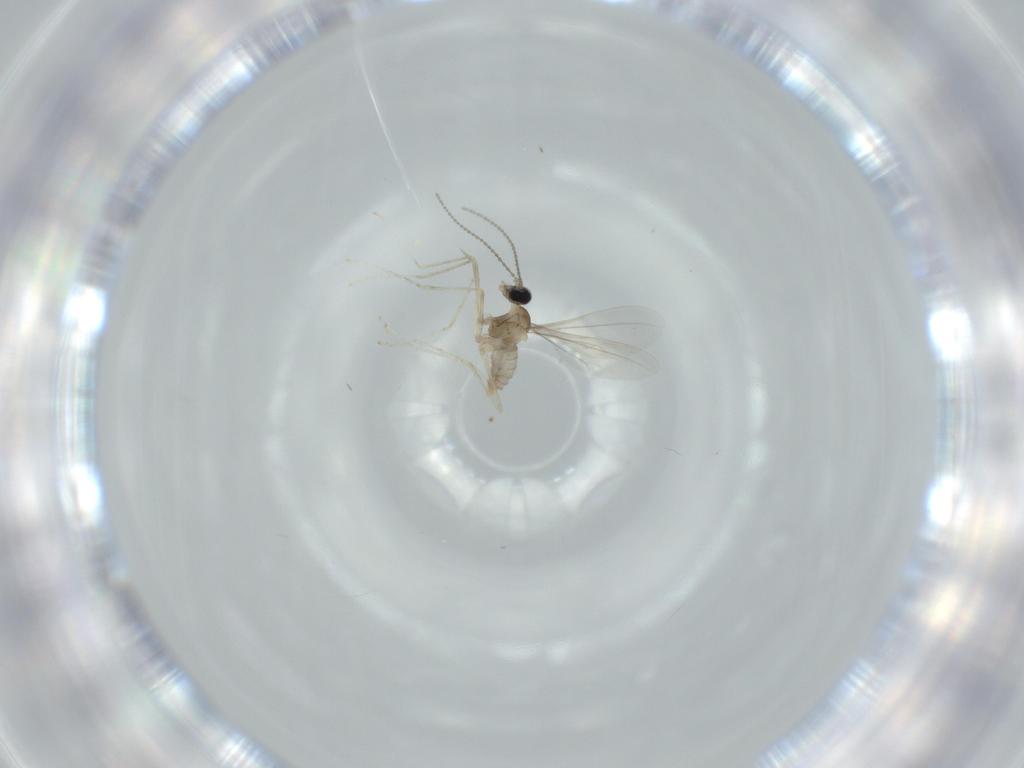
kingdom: Animalia
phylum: Arthropoda
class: Insecta
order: Diptera
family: Cecidomyiidae
